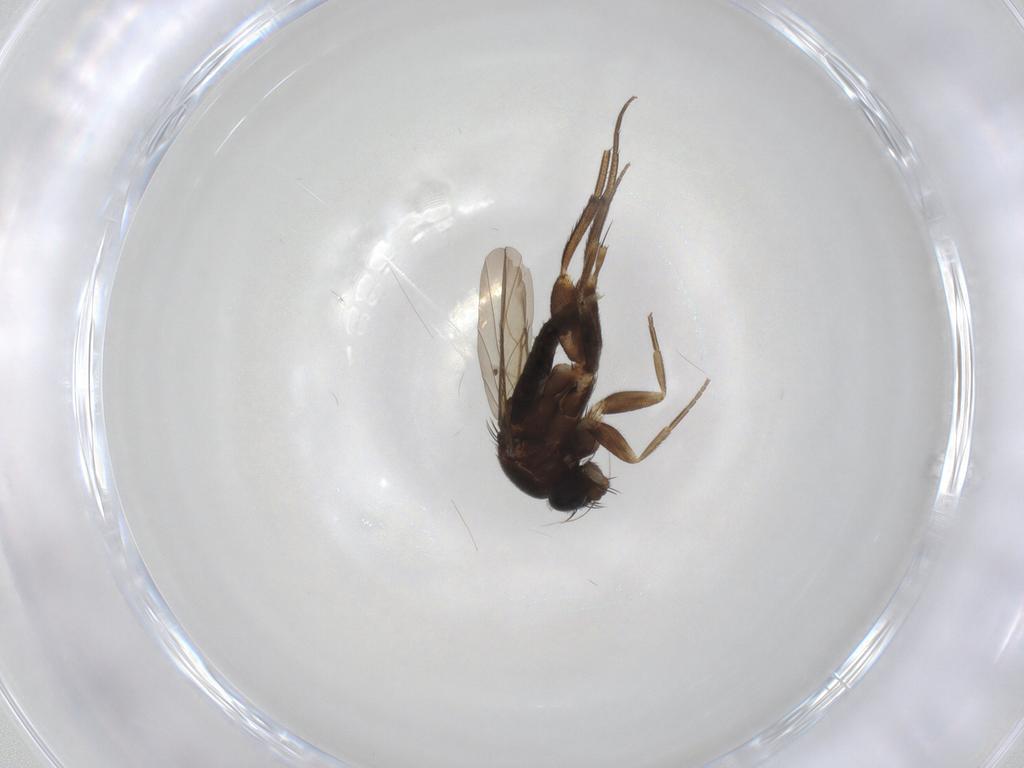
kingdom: Animalia
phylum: Arthropoda
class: Insecta
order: Diptera
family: Phoridae
